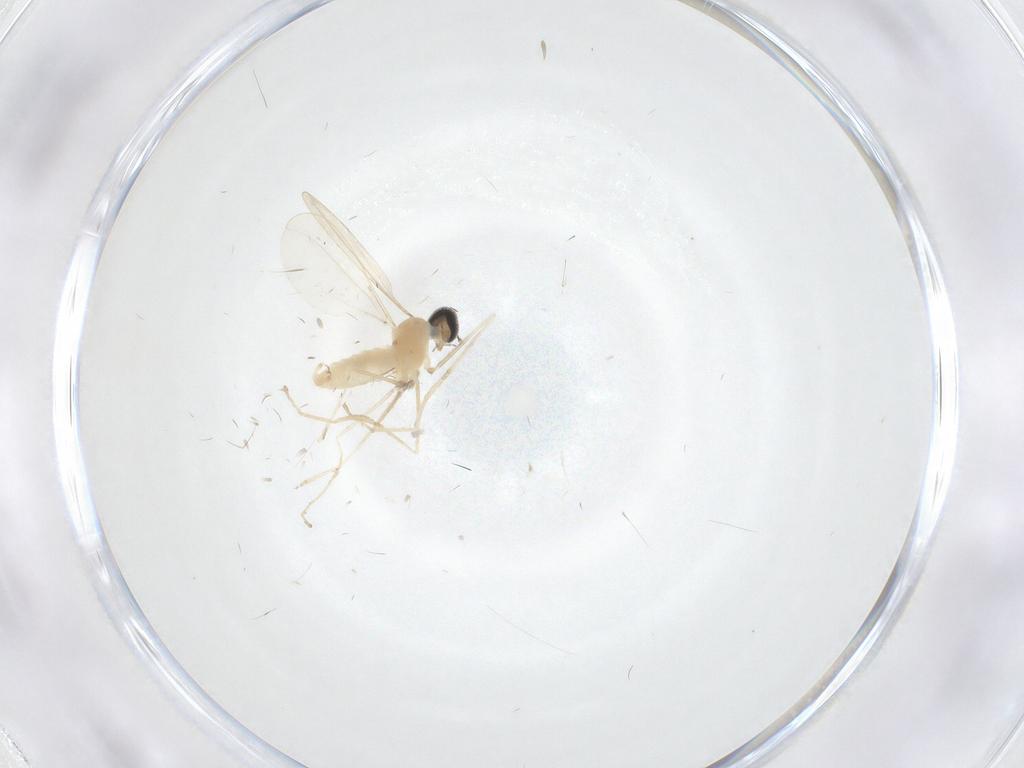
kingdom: Animalia
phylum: Arthropoda
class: Insecta
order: Diptera
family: Cecidomyiidae
